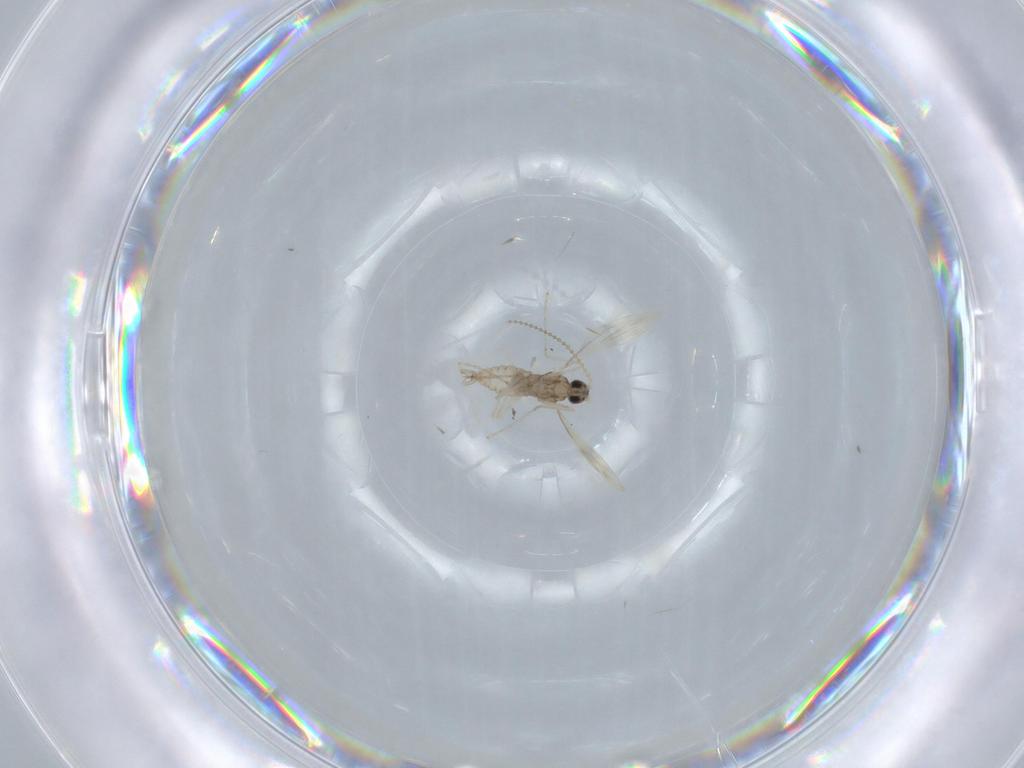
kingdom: Animalia
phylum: Arthropoda
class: Insecta
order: Diptera
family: Cecidomyiidae
